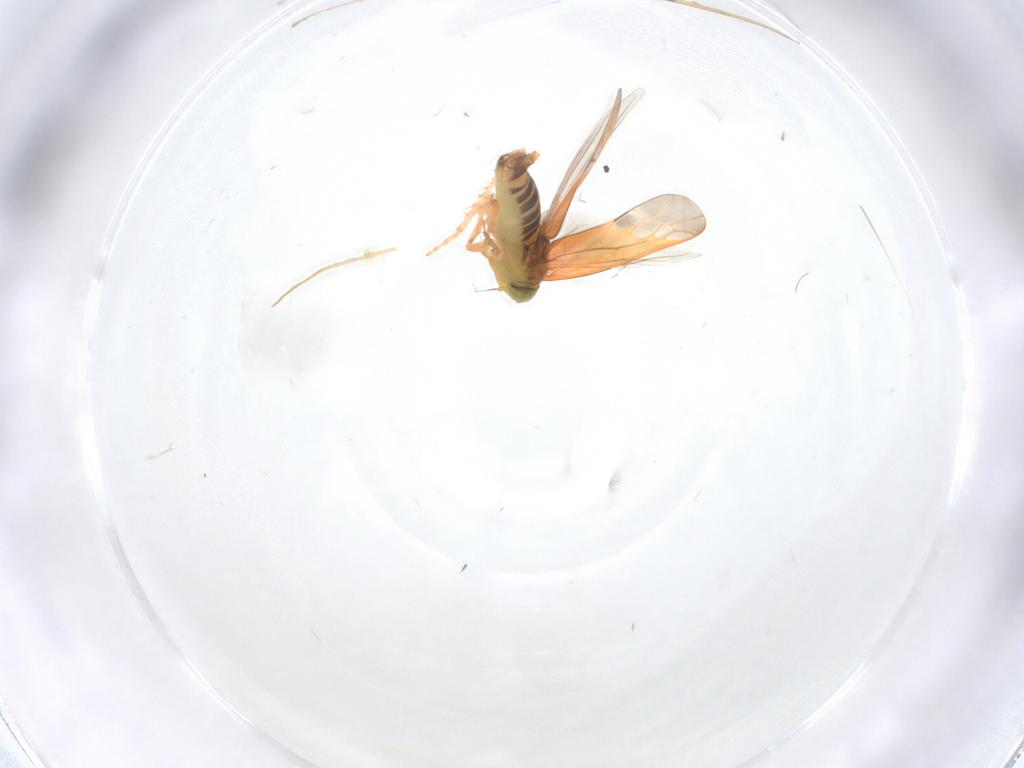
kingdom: Animalia
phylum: Arthropoda
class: Insecta
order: Hemiptera
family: Cicadellidae
